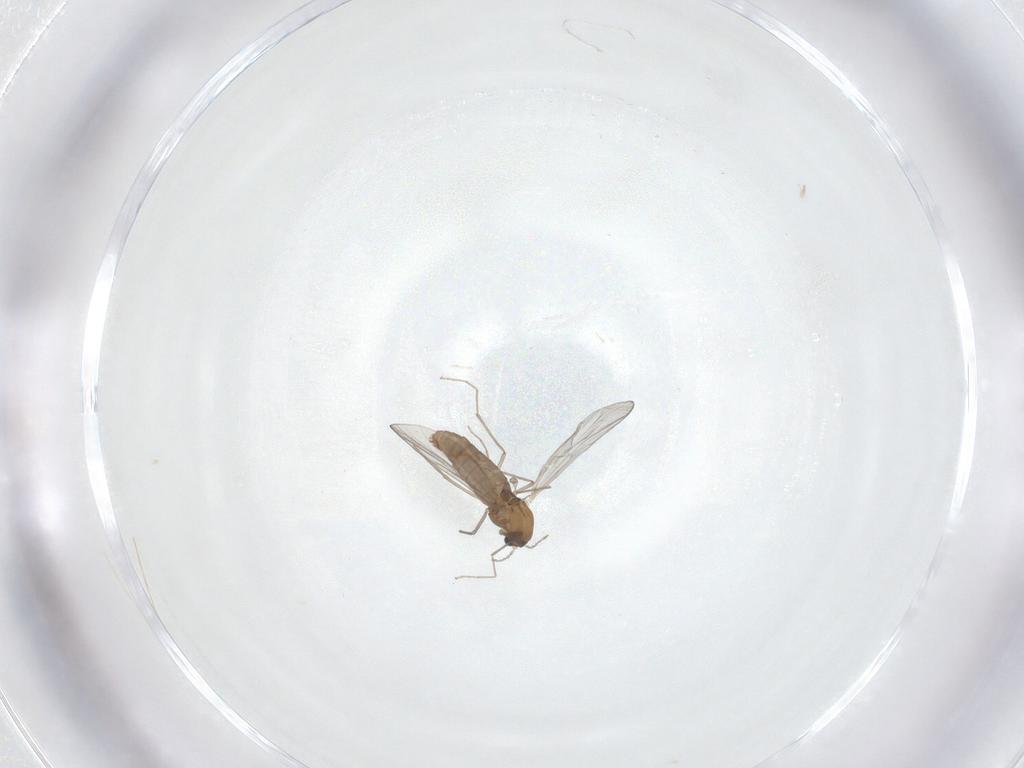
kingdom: Animalia
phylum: Arthropoda
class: Insecta
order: Diptera
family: Chironomidae
